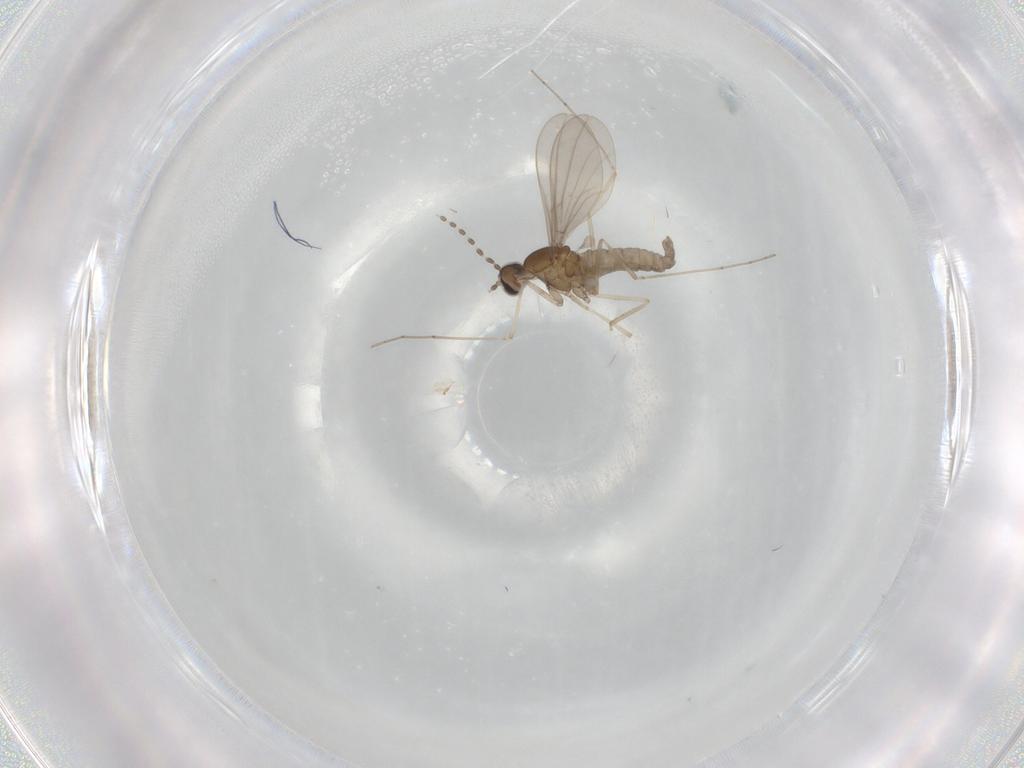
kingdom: Animalia
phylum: Arthropoda
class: Insecta
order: Diptera
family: Cecidomyiidae
